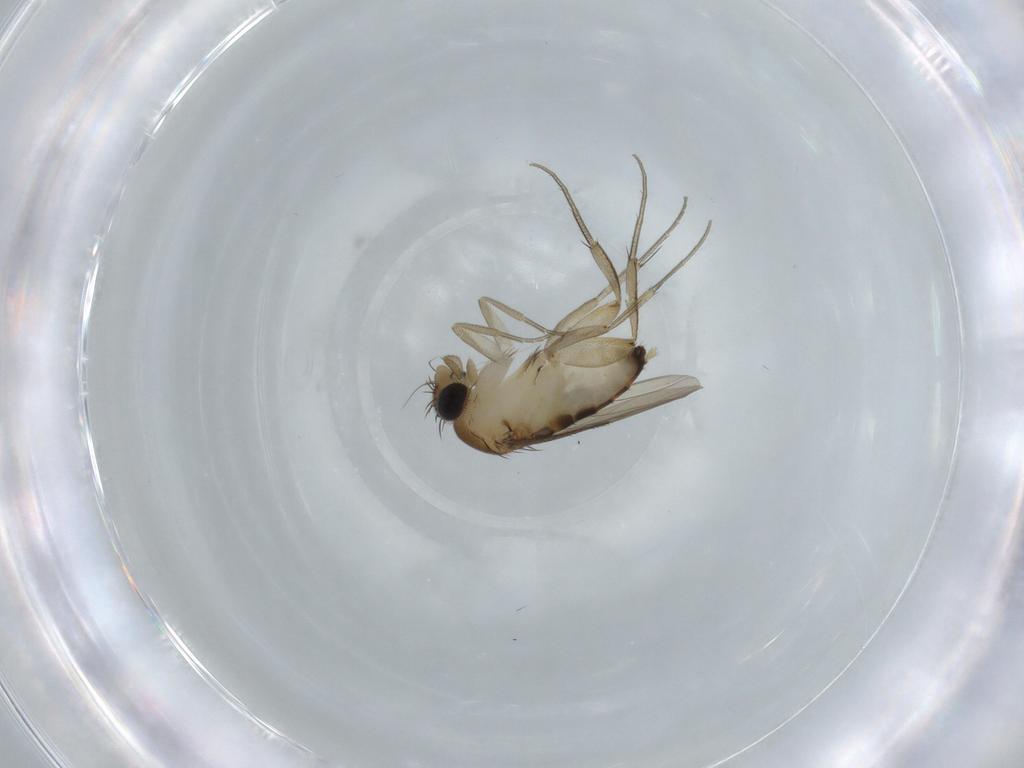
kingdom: Animalia
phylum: Arthropoda
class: Insecta
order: Diptera
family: Phoridae
